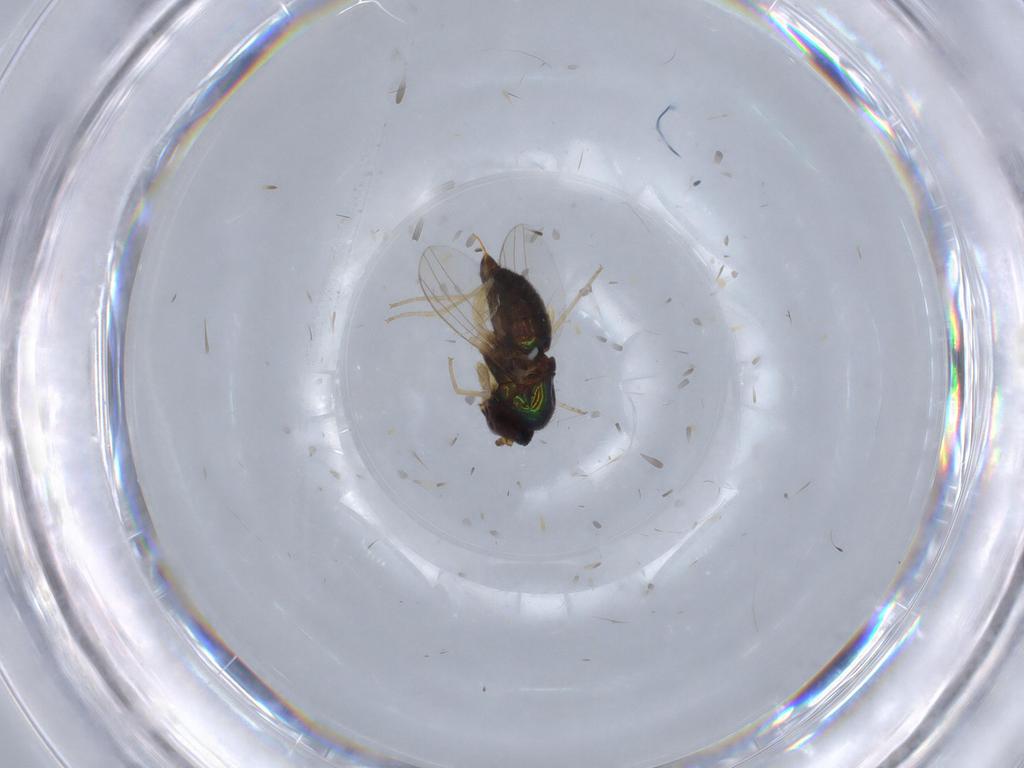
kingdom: Animalia
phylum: Arthropoda
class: Insecta
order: Diptera
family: Dolichopodidae
